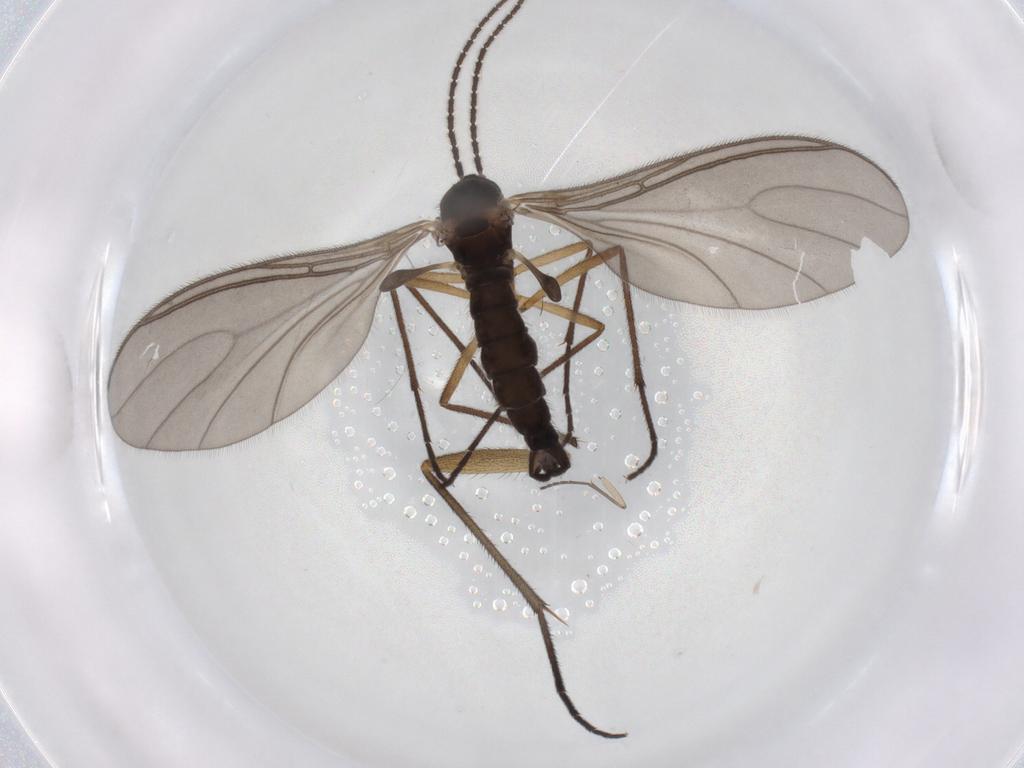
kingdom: Animalia
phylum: Arthropoda
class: Insecta
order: Diptera
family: Sciaridae
